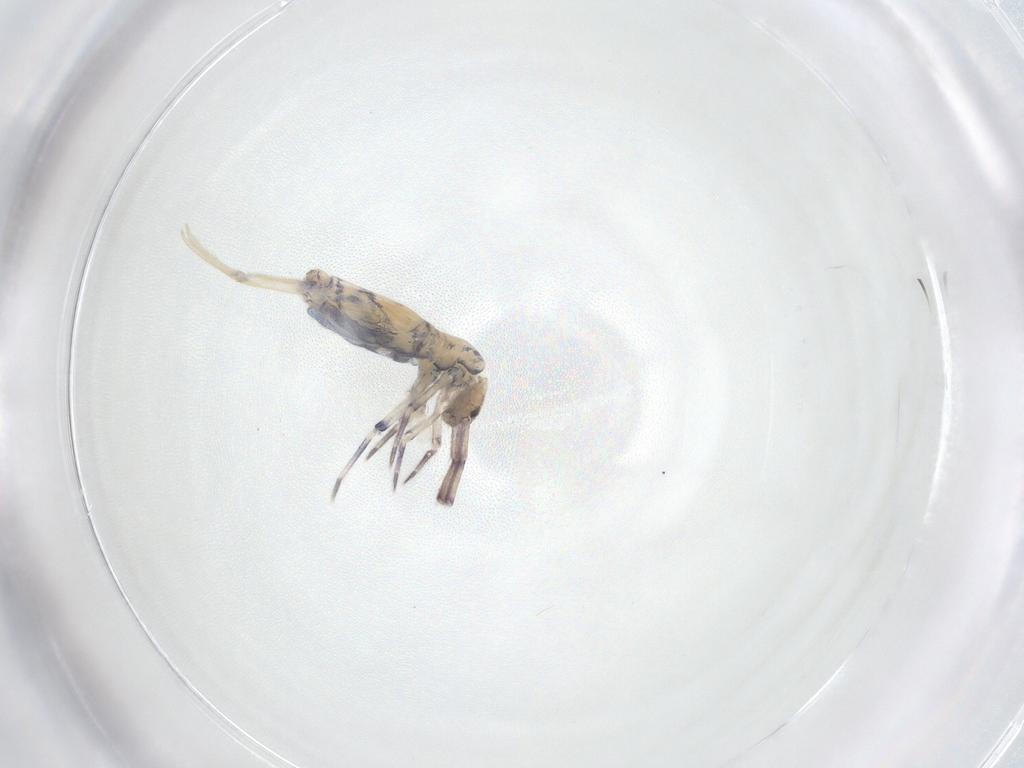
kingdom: Animalia
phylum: Arthropoda
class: Collembola
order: Entomobryomorpha
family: Entomobryidae
